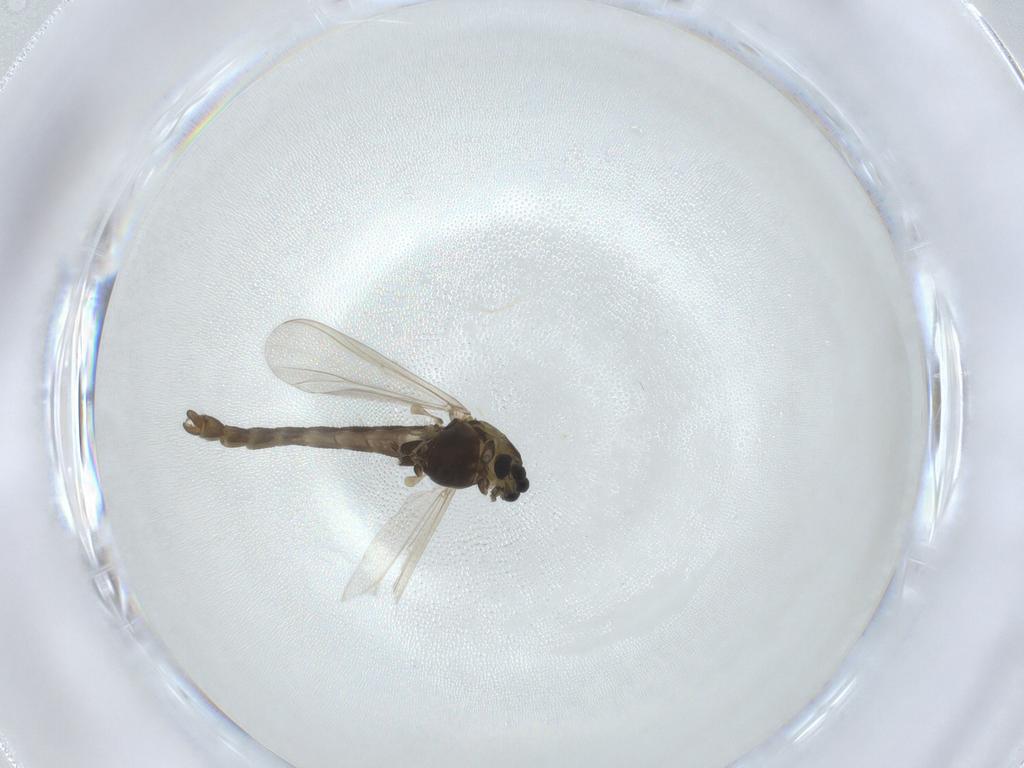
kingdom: Animalia
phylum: Arthropoda
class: Insecta
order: Diptera
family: Chironomidae
